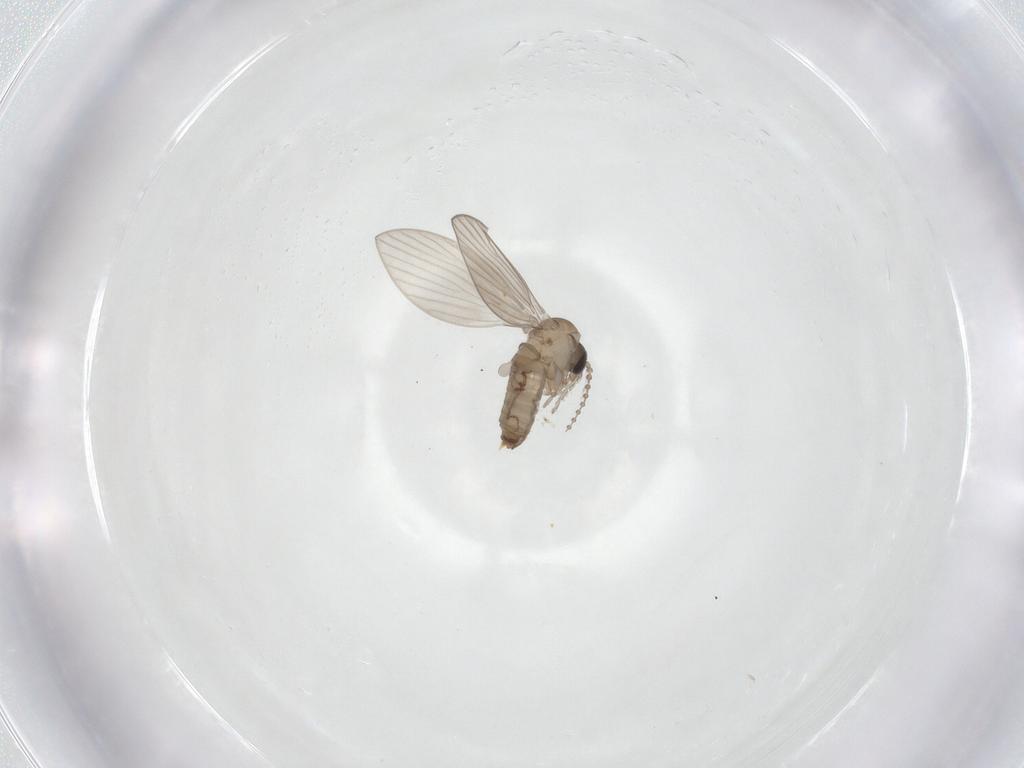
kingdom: Animalia
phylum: Arthropoda
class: Insecta
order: Diptera
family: Psychodidae
